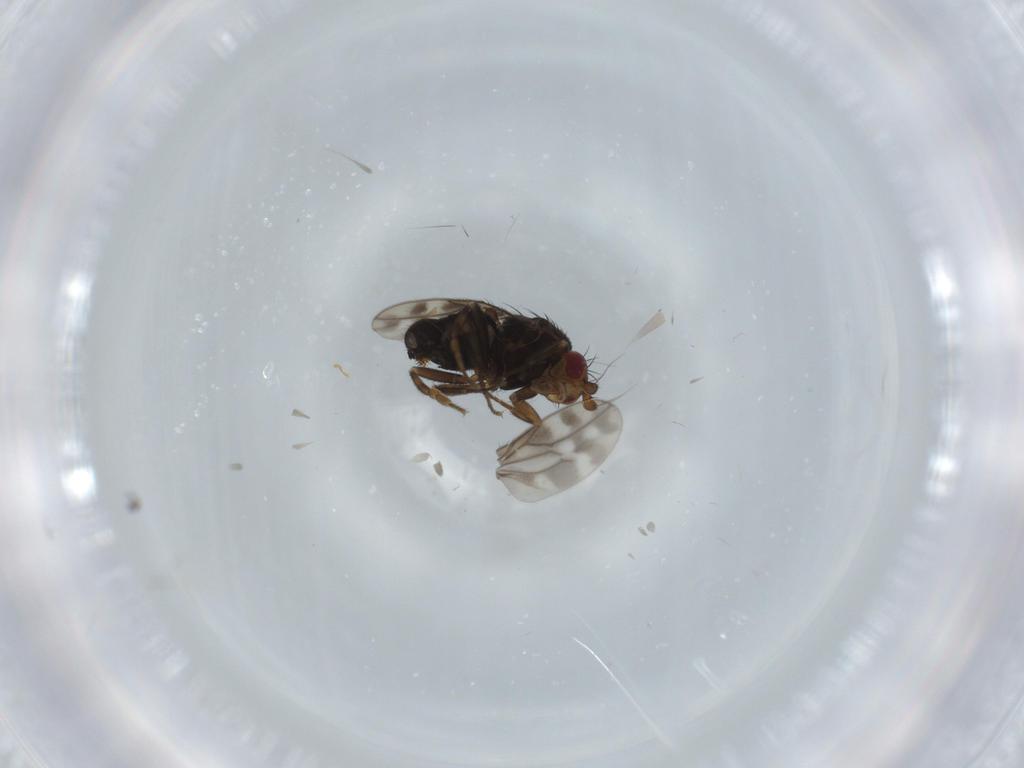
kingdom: Animalia
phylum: Arthropoda
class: Insecta
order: Diptera
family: Sphaeroceridae
